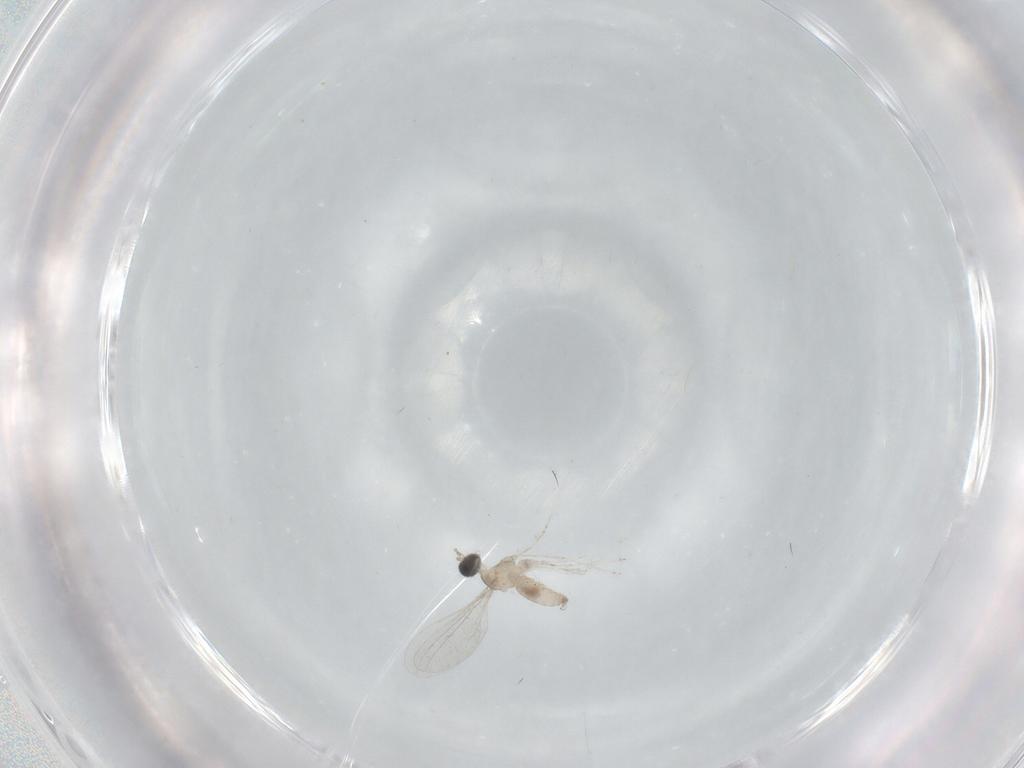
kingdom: Animalia
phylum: Arthropoda
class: Insecta
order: Diptera
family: Cecidomyiidae
